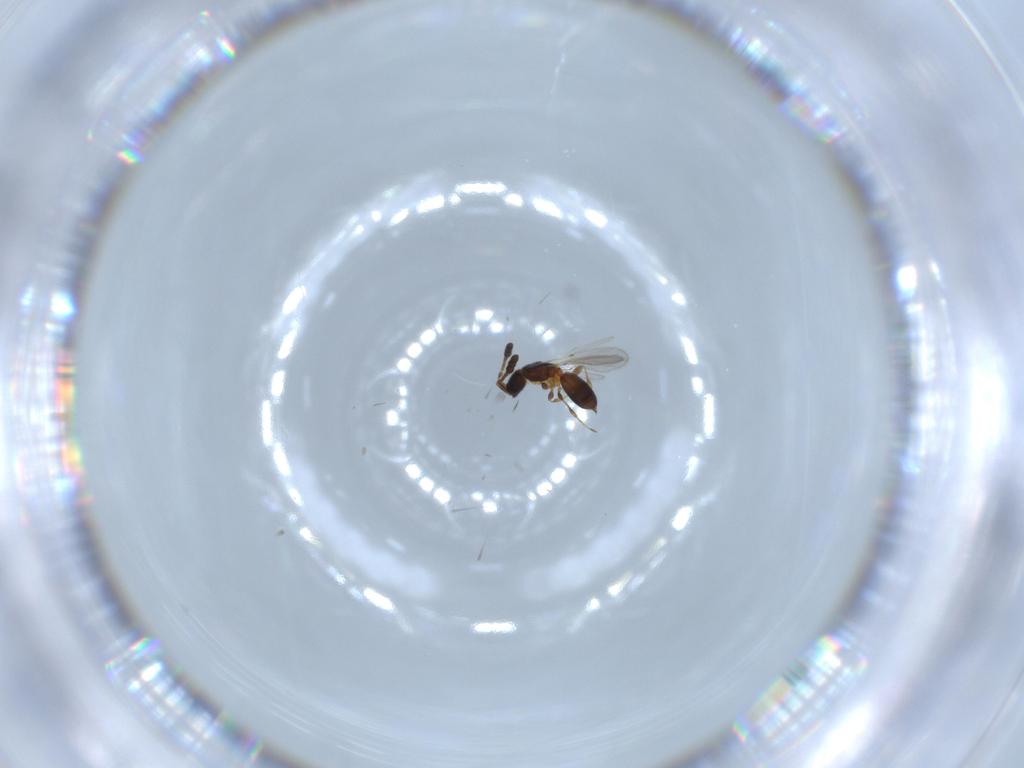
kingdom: Animalia
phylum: Arthropoda
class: Insecta
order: Hymenoptera
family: Diapriidae
